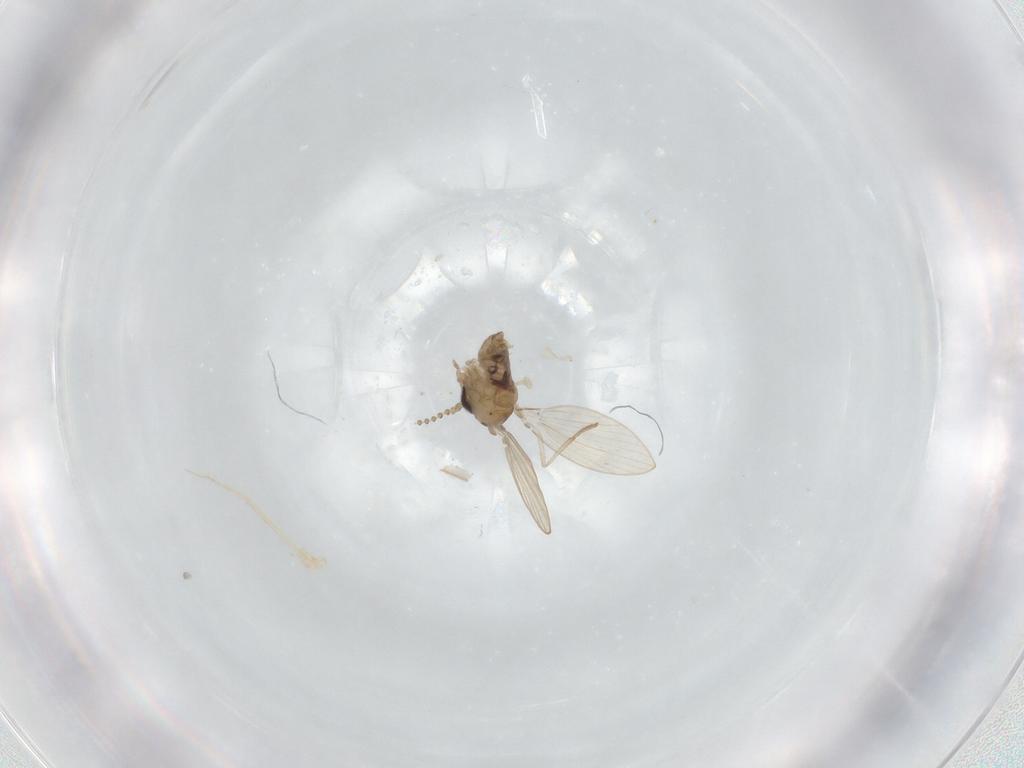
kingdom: Animalia
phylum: Arthropoda
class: Insecta
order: Diptera
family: Psychodidae
